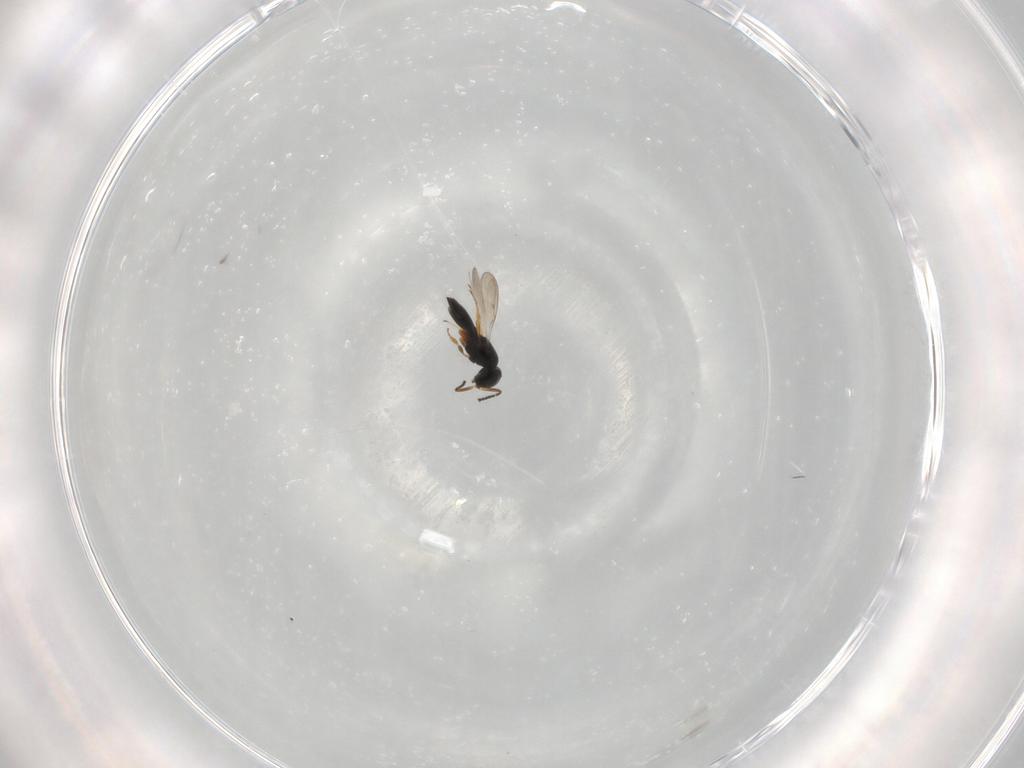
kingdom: Animalia
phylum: Arthropoda
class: Insecta
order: Hymenoptera
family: Scelionidae
